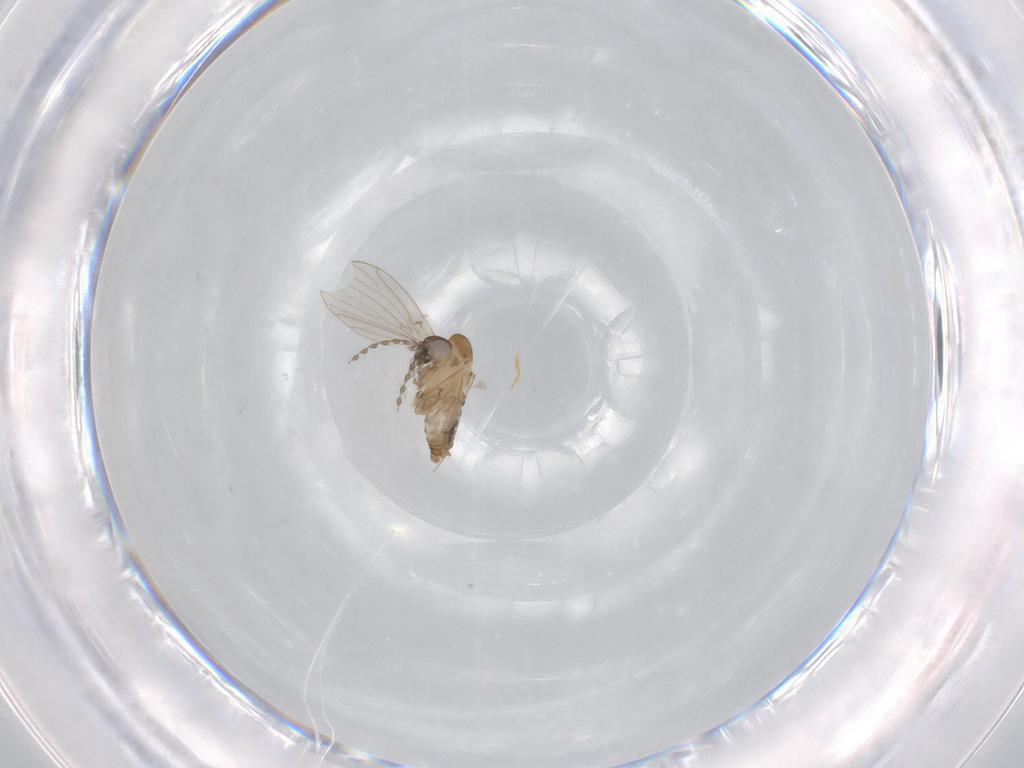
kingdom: Animalia
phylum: Arthropoda
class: Insecta
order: Diptera
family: Psychodidae
